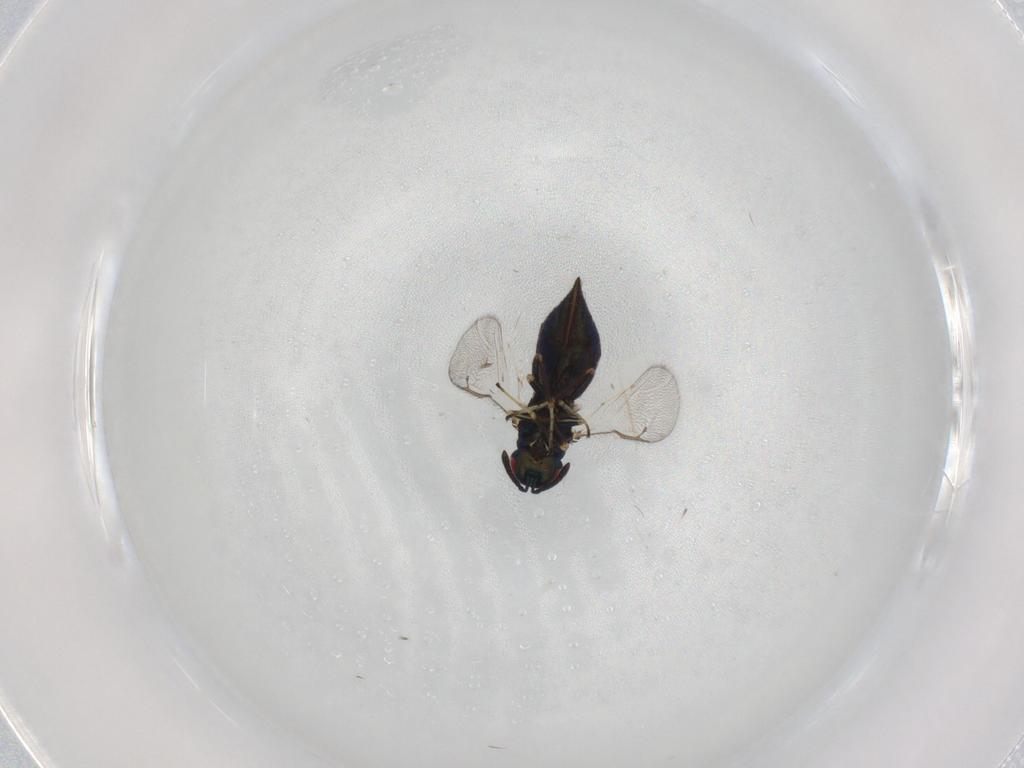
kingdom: Animalia
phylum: Arthropoda
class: Insecta
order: Hymenoptera
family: Pteromalidae
